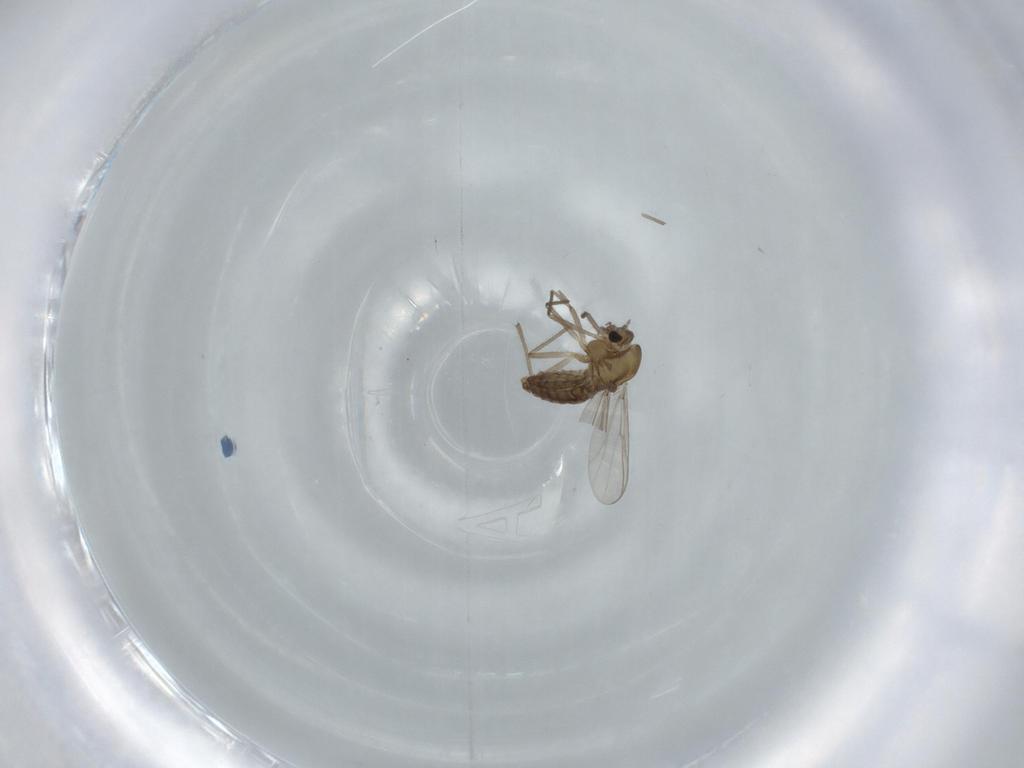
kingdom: Animalia
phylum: Arthropoda
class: Insecta
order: Diptera
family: Chironomidae
